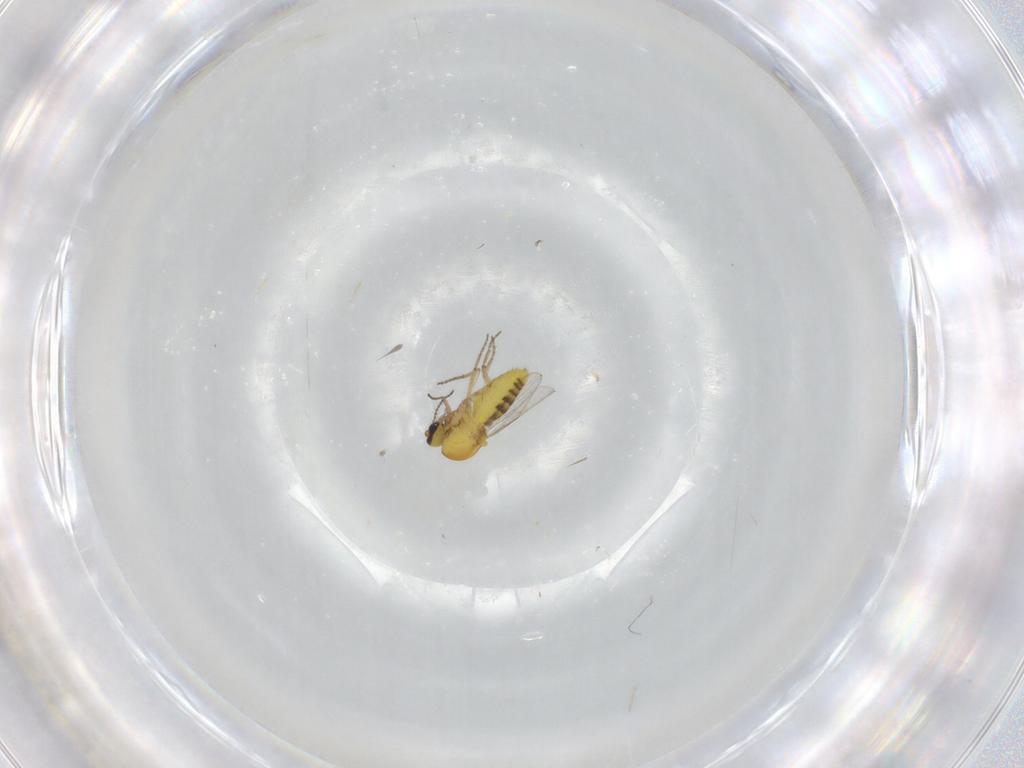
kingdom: Animalia
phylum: Arthropoda
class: Insecta
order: Diptera
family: Ceratopogonidae
